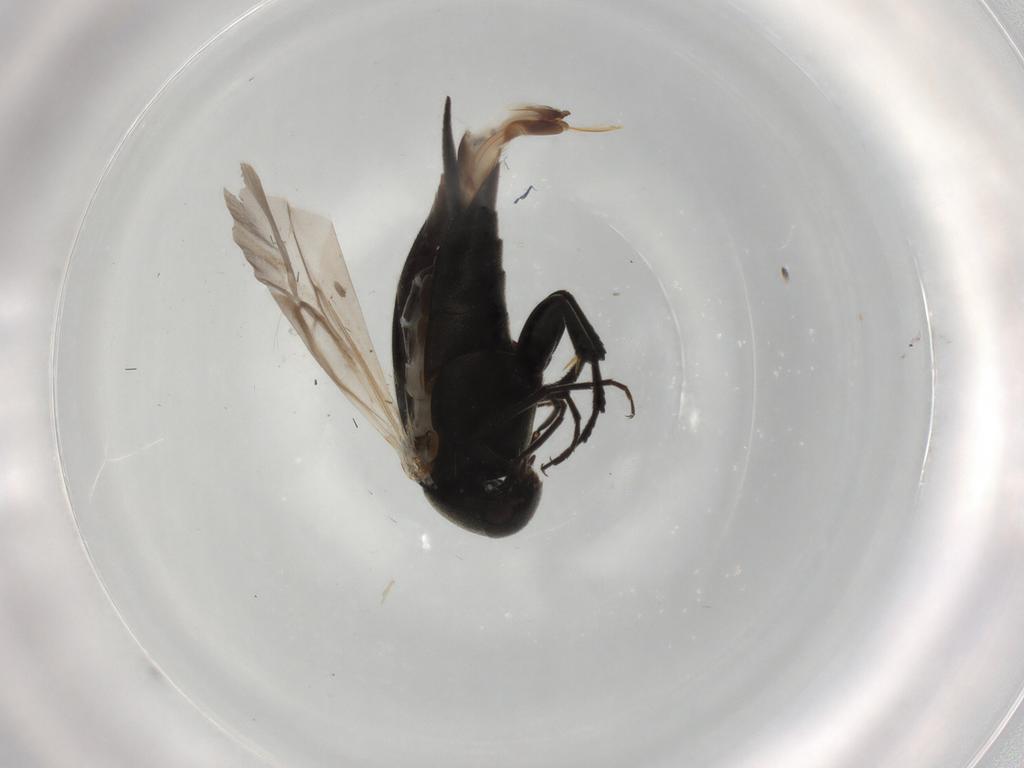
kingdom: Animalia
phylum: Arthropoda
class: Insecta
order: Coleoptera
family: Mordellidae
